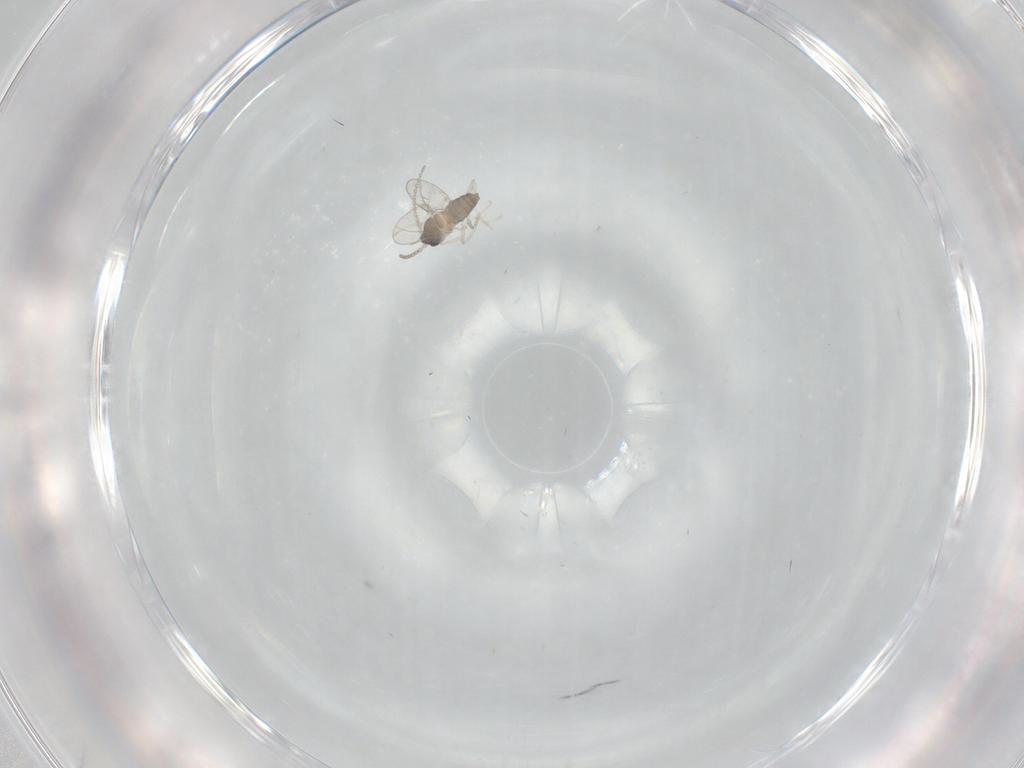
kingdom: Animalia
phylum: Arthropoda
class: Insecta
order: Diptera
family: Cecidomyiidae
